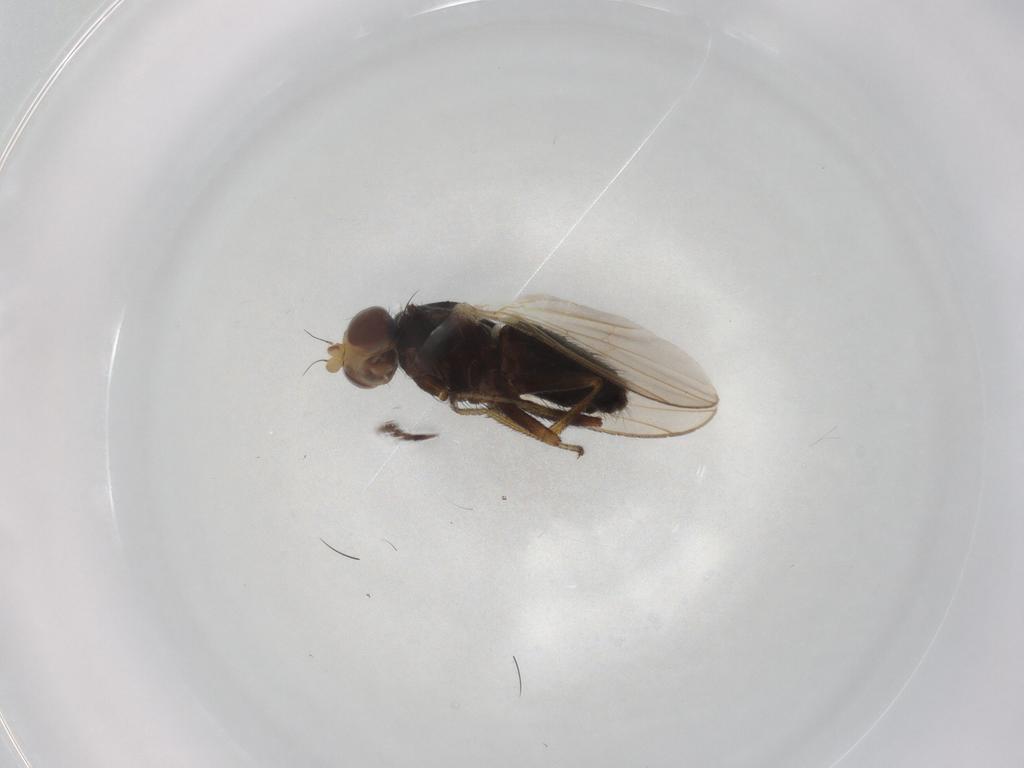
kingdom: Animalia
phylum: Arthropoda
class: Insecta
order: Diptera
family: Heleomyzidae
